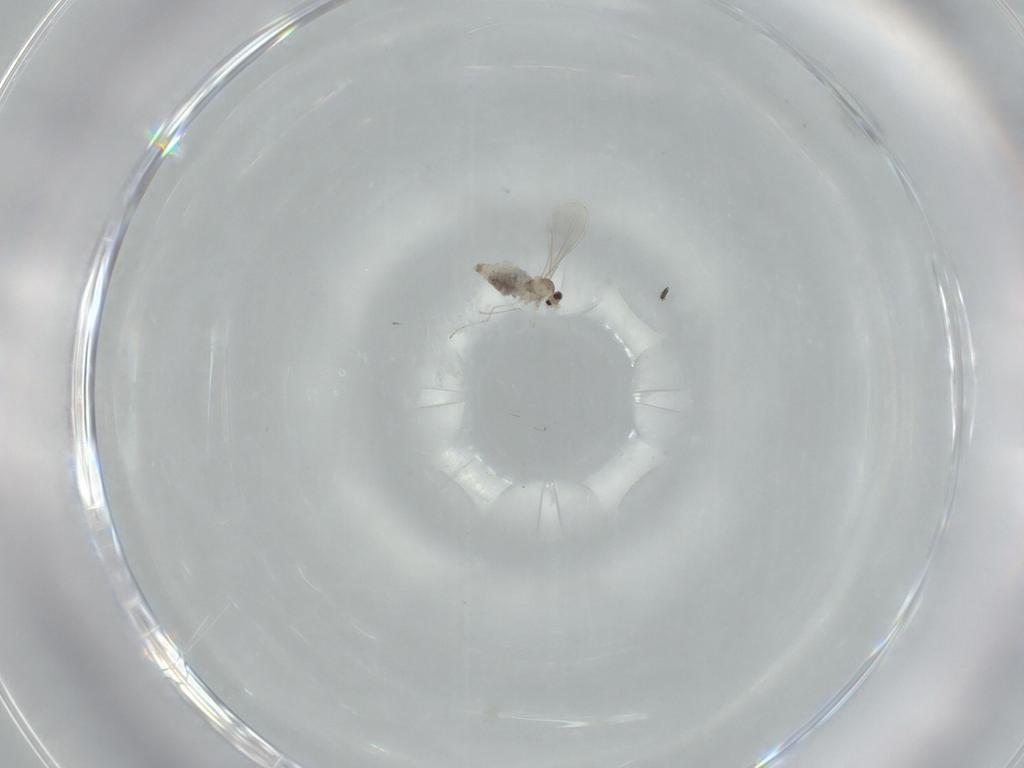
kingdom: Animalia
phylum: Arthropoda
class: Insecta
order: Diptera
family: Cecidomyiidae
